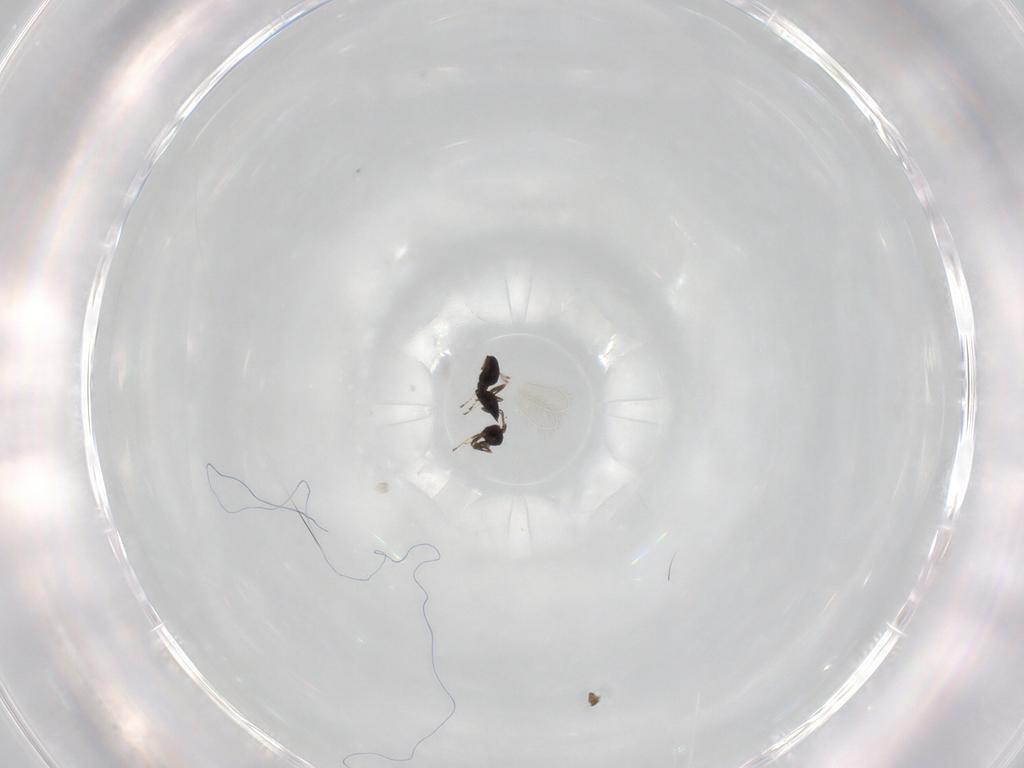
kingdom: Animalia
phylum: Arthropoda
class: Insecta
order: Hymenoptera
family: Mymaridae
